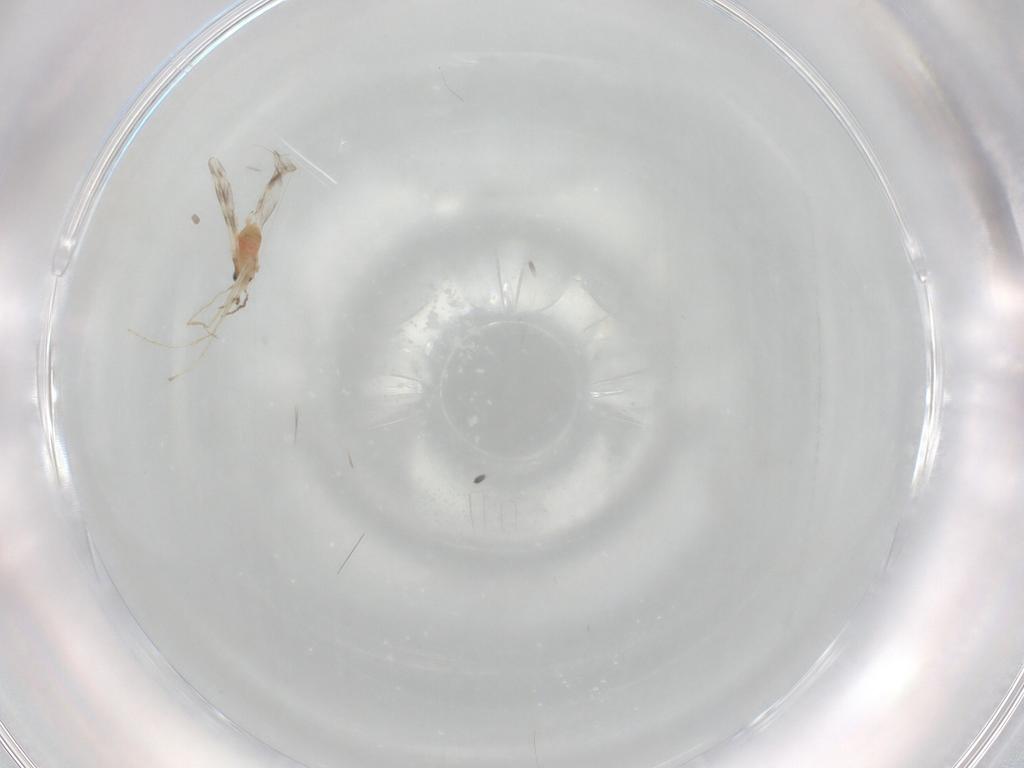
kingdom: Animalia
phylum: Arthropoda
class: Insecta
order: Diptera
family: Cecidomyiidae
